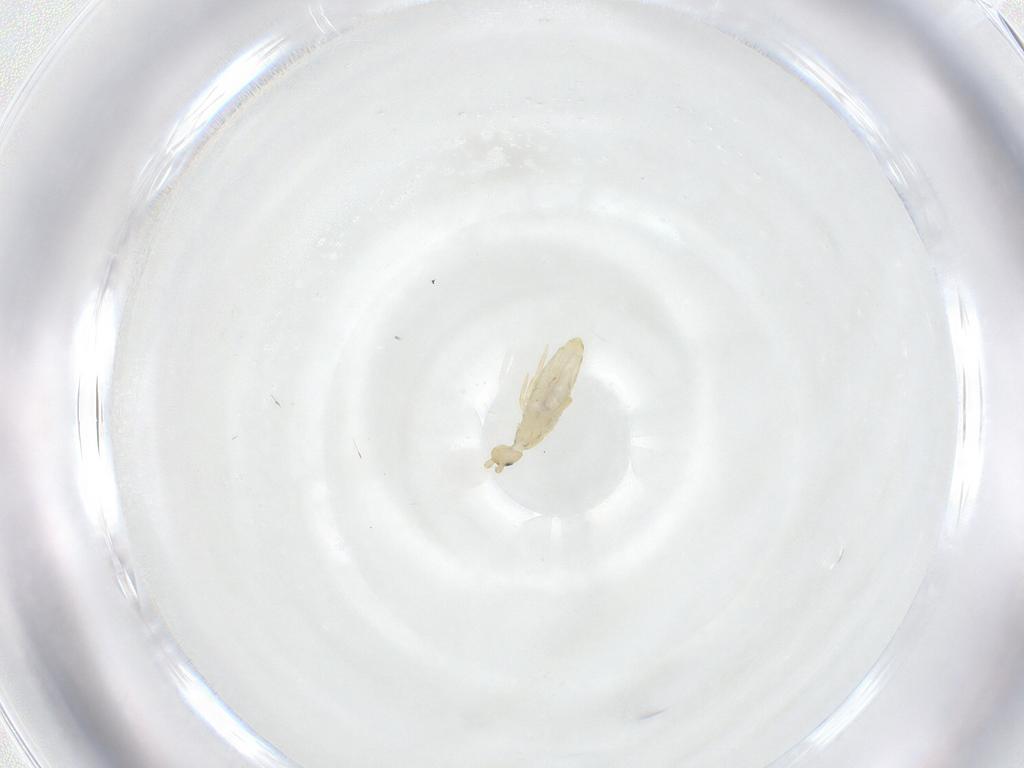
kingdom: Animalia
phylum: Arthropoda
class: Collembola
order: Entomobryomorpha
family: Entomobryidae
